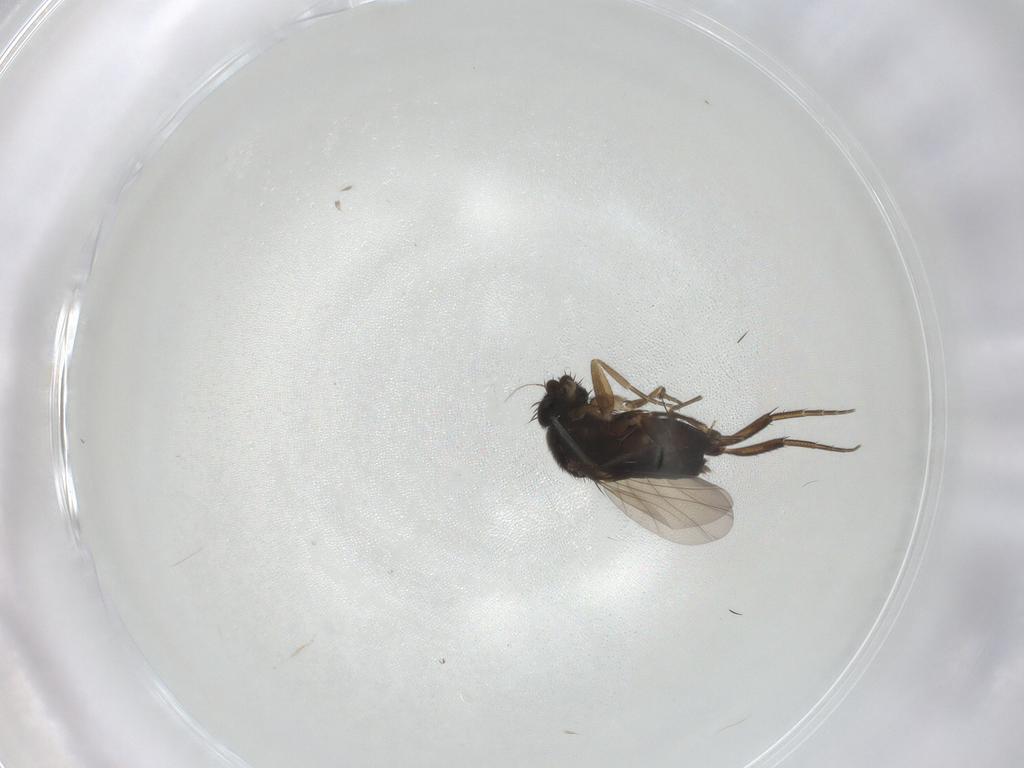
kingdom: Animalia
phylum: Arthropoda
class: Insecta
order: Diptera
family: Phoridae
